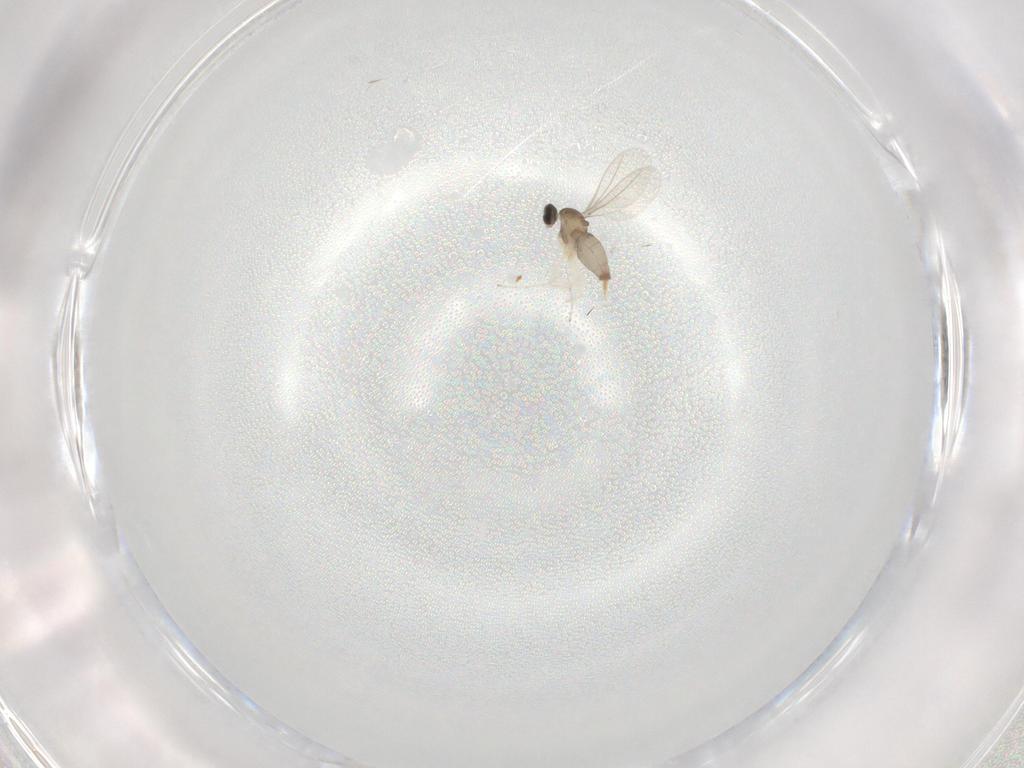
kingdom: Animalia
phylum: Arthropoda
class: Insecta
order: Diptera
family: Cecidomyiidae
